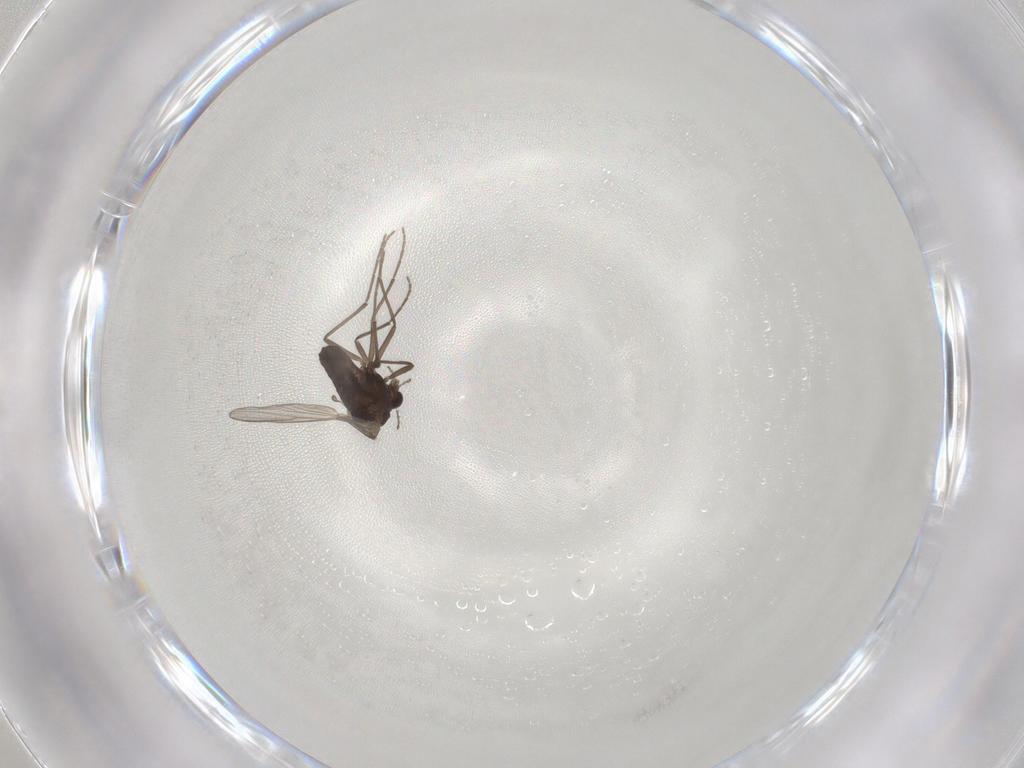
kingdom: Animalia
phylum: Arthropoda
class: Insecta
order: Diptera
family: Chironomidae
